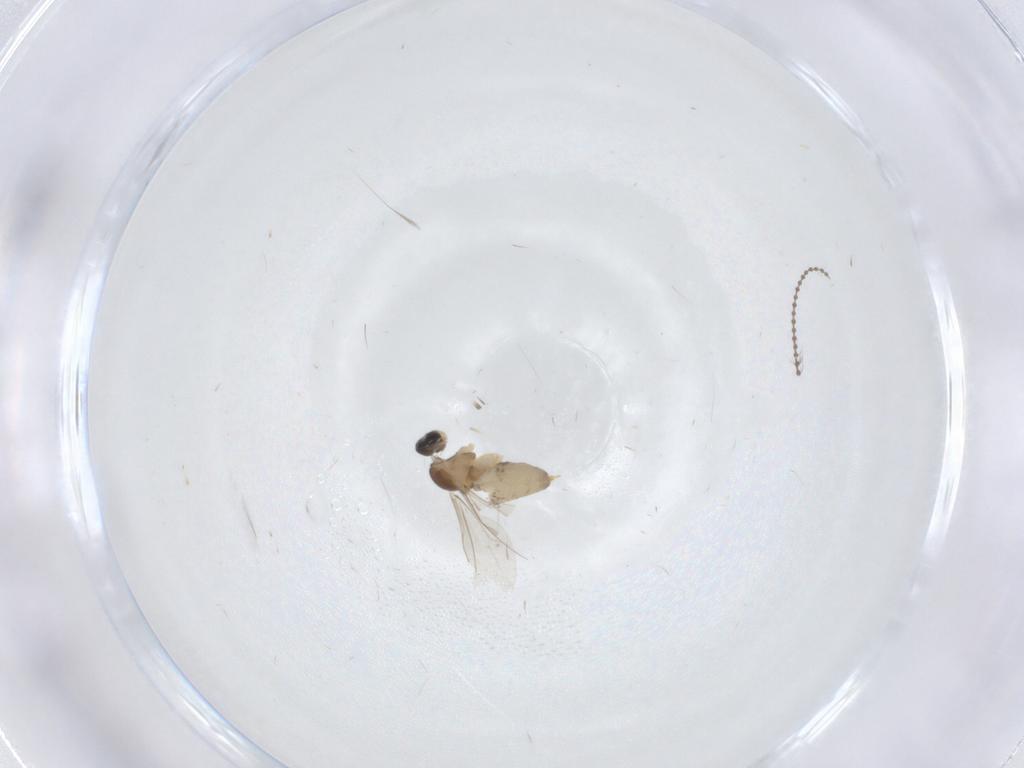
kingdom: Animalia
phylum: Arthropoda
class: Insecta
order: Diptera
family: Cecidomyiidae
